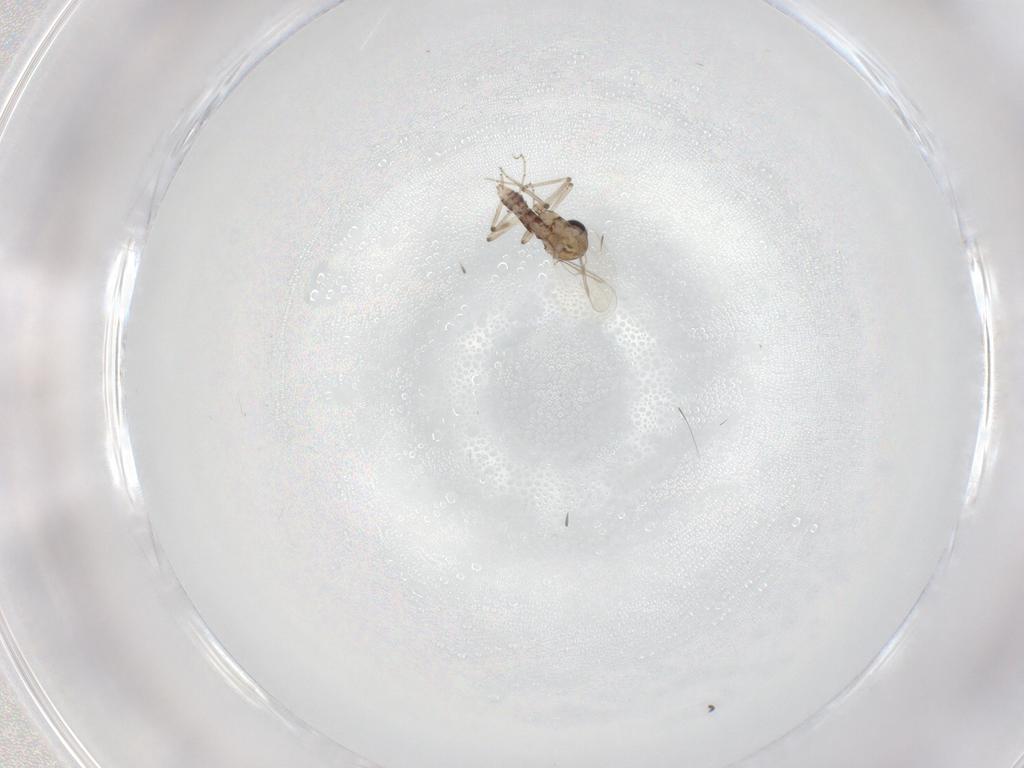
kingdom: Animalia
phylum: Arthropoda
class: Insecta
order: Diptera
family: Ceratopogonidae
